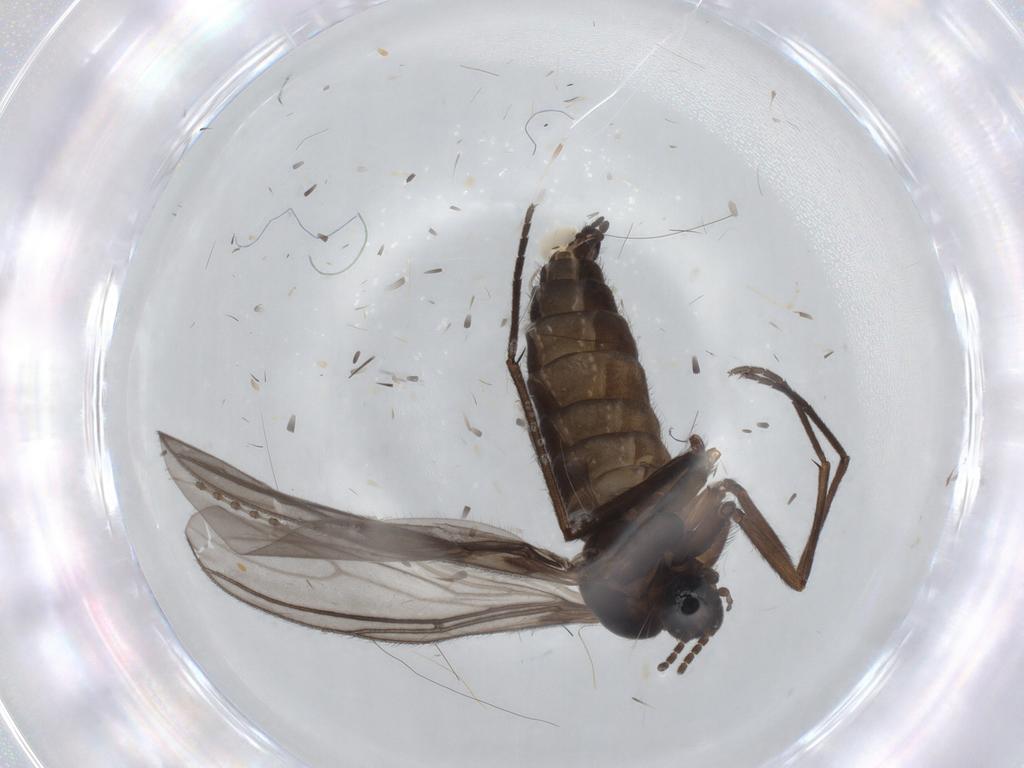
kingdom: Animalia
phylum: Arthropoda
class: Insecta
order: Diptera
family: Sciaridae
